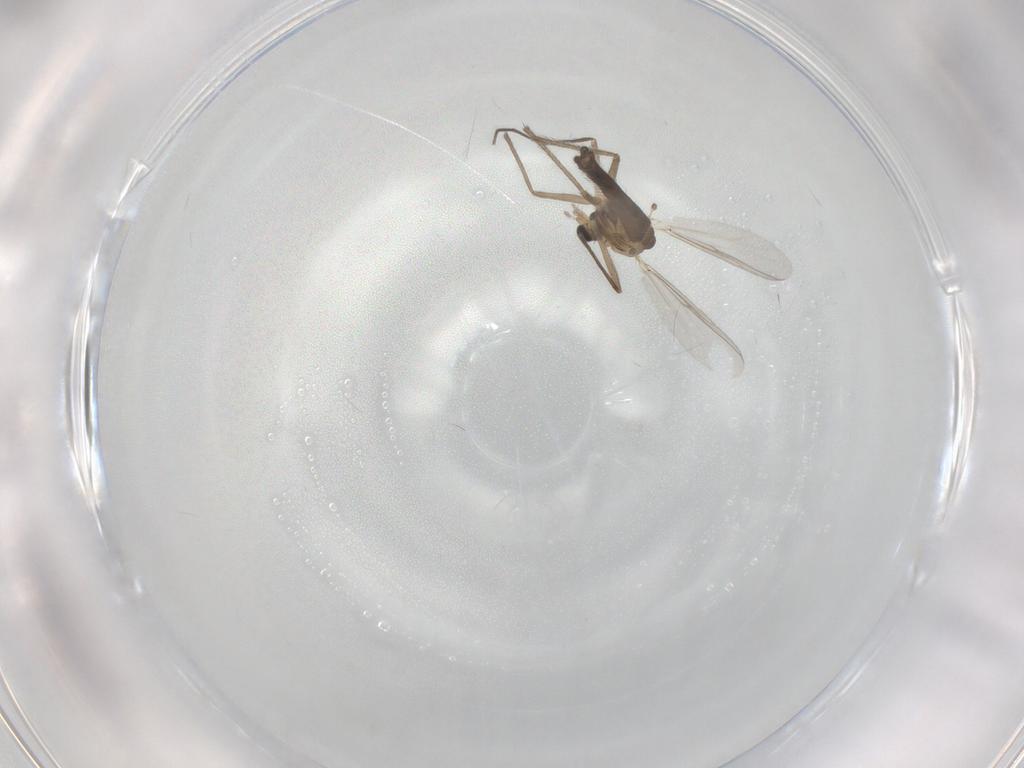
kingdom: Animalia
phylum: Arthropoda
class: Insecta
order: Diptera
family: Chironomidae
